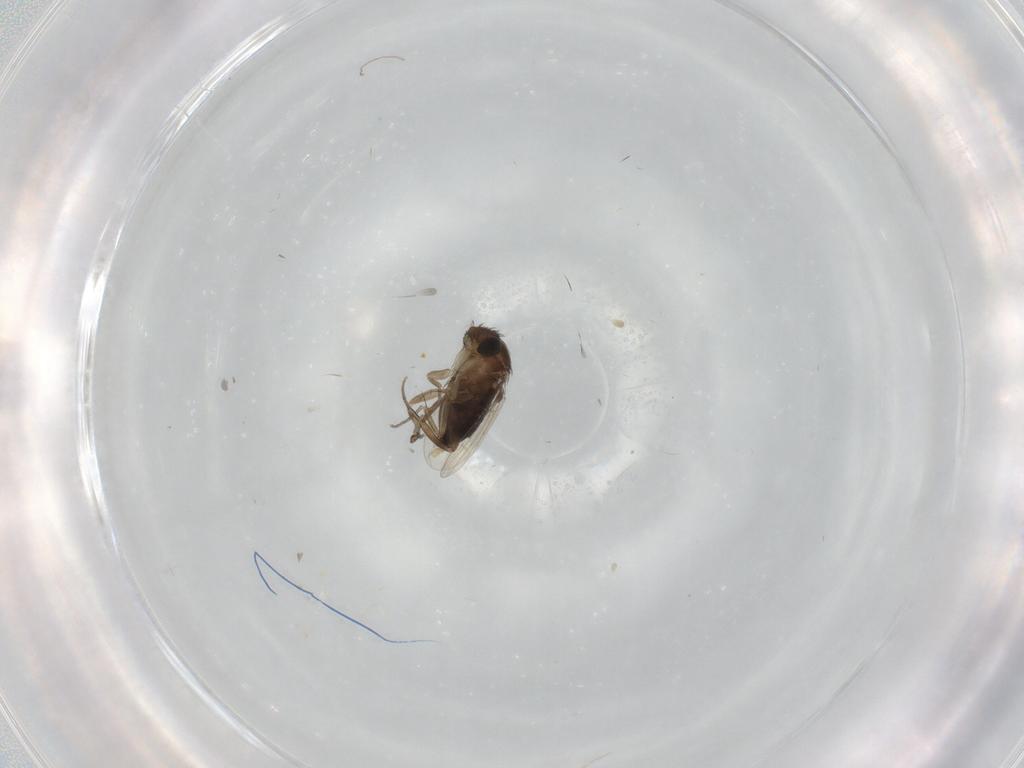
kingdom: Animalia
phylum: Arthropoda
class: Insecta
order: Diptera
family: Phoridae
